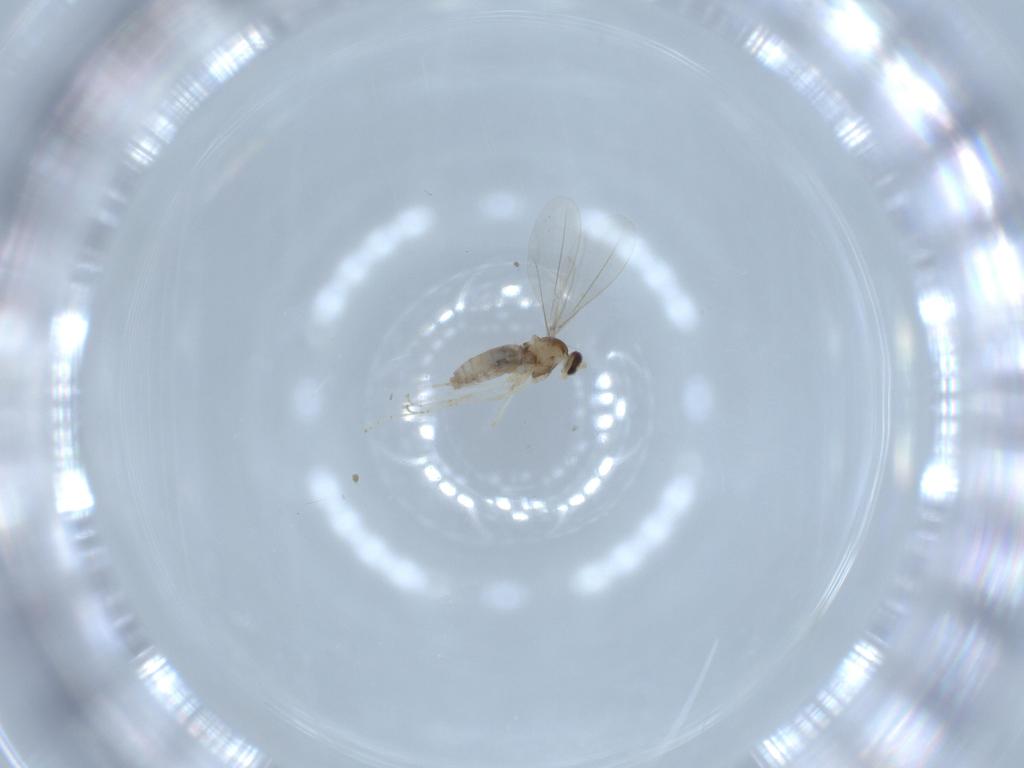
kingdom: Animalia
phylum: Arthropoda
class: Insecta
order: Diptera
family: Cecidomyiidae
